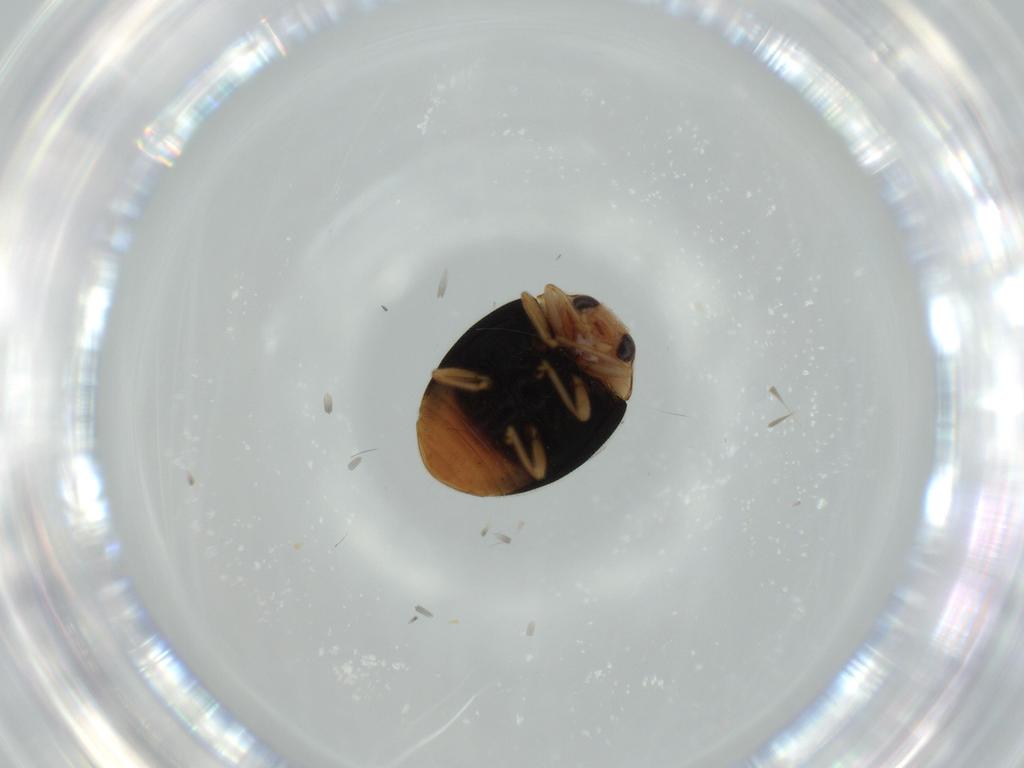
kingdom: Animalia
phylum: Arthropoda
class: Insecta
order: Coleoptera
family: Coccinellidae
